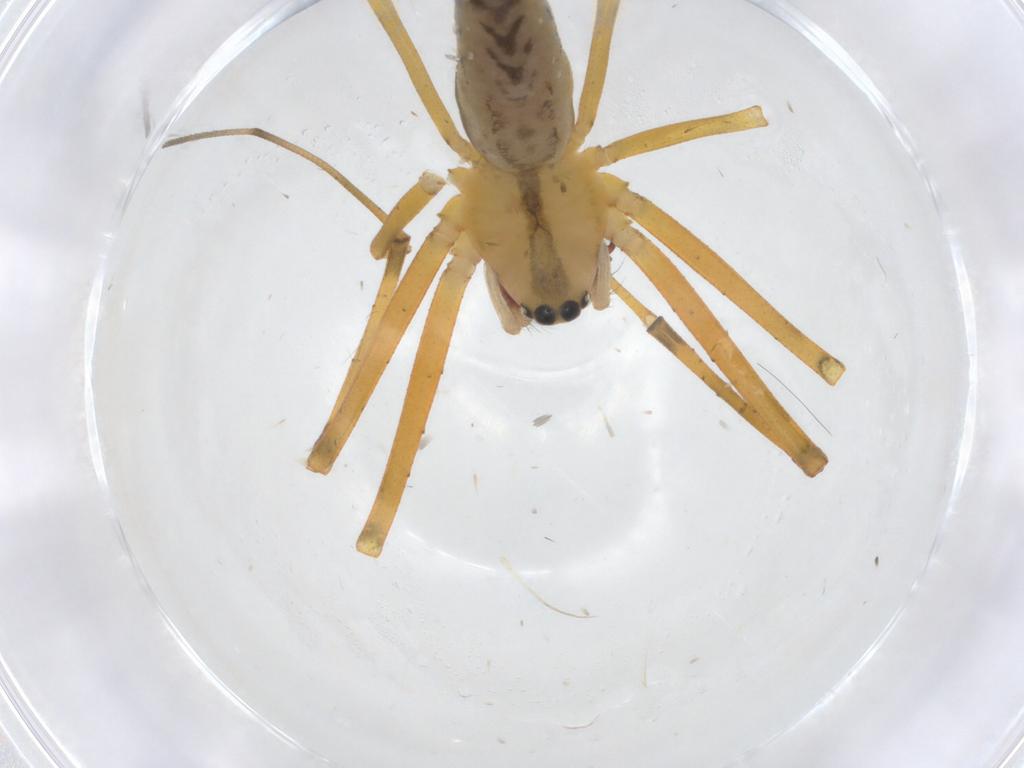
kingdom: Animalia
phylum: Arthropoda
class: Arachnida
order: Araneae
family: Linyphiidae
